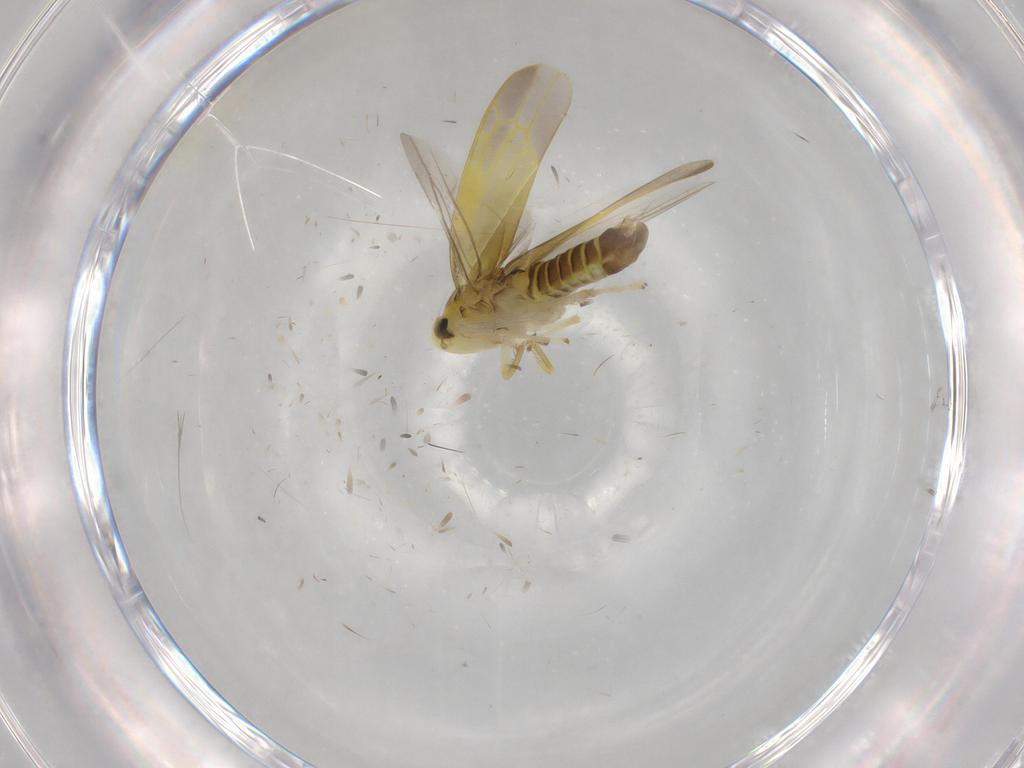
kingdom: Animalia
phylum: Arthropoda
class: Insecta
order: Hemiptera
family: Cicadellidae
